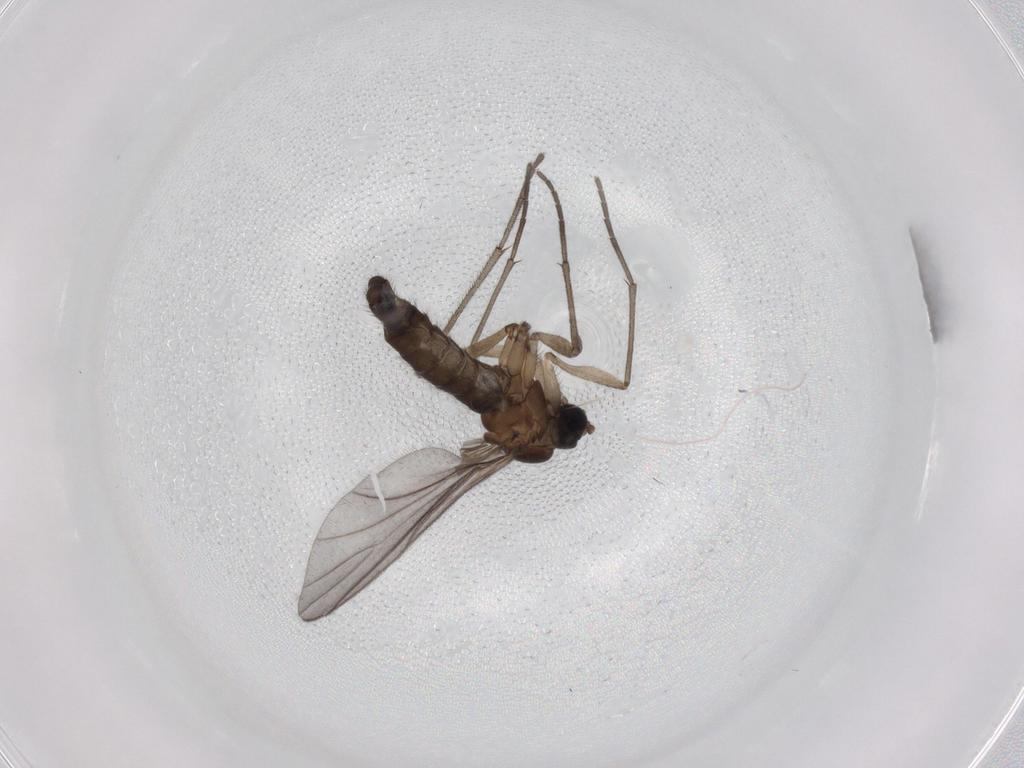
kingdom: Animalia
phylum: Arthropoda
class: Insecta
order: Diptera
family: Sciaridae
